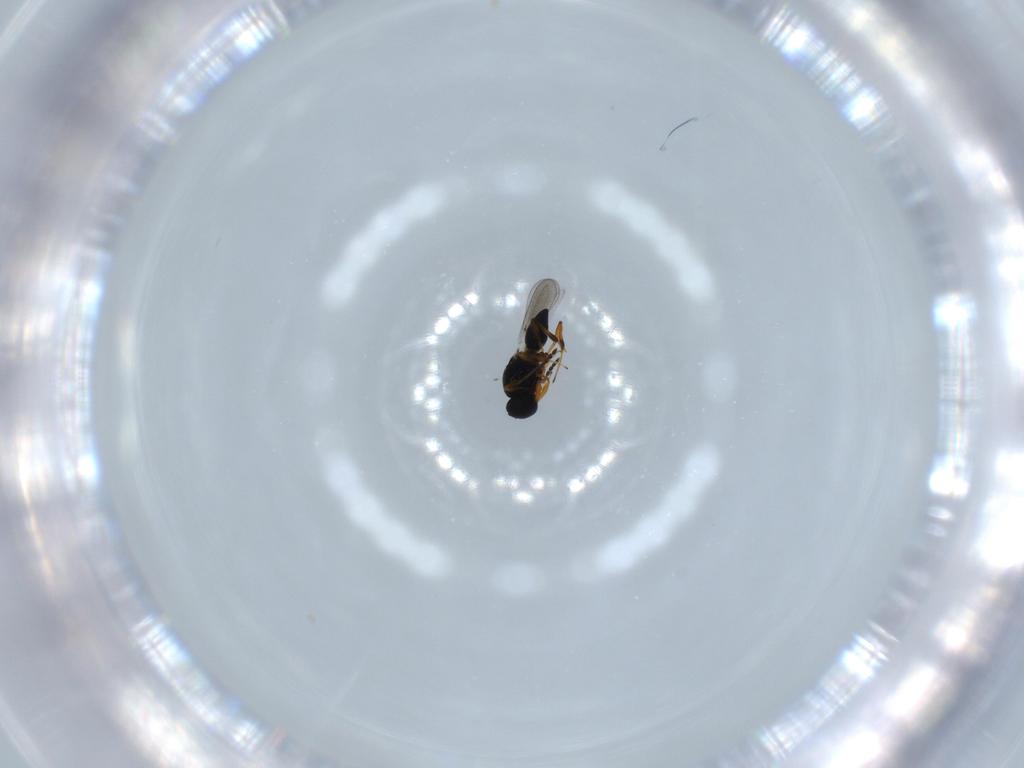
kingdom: Animalia
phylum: Arthropoda
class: Insecta
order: Hymenoptera
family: Platygastridae
